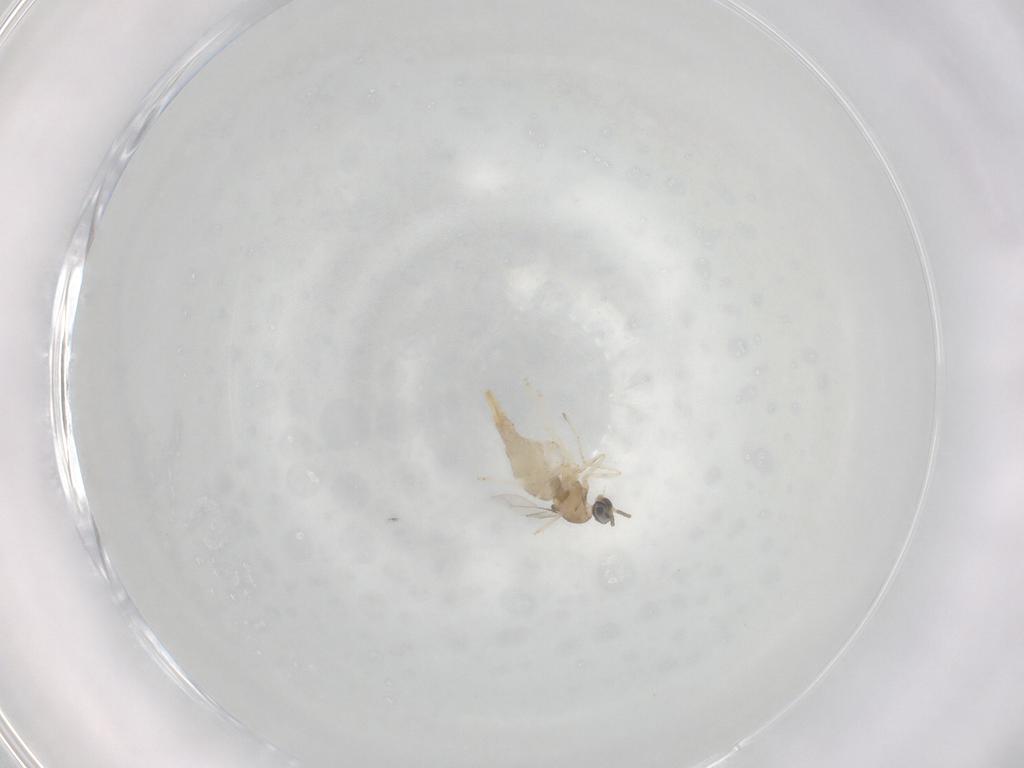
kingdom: Animalia
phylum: Arthropoda
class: Insecta
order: Diptera
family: Cecidomyiidae
